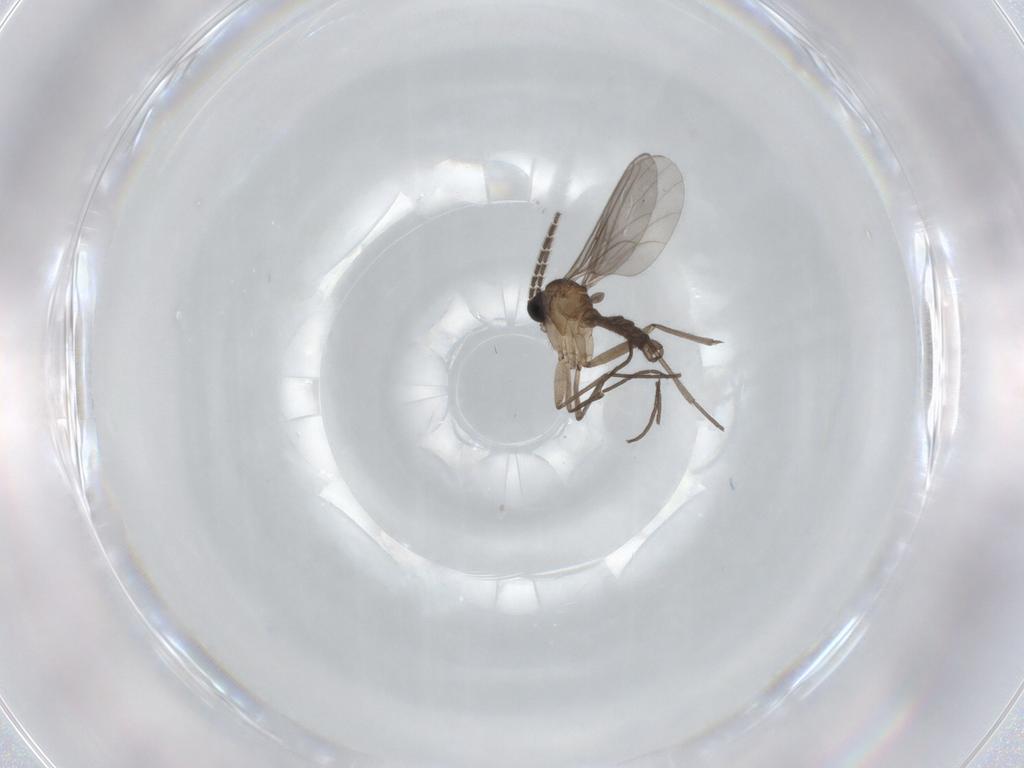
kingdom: Animalia
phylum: Arthropoda
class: Insecta
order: Diptera
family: Sciaridae
